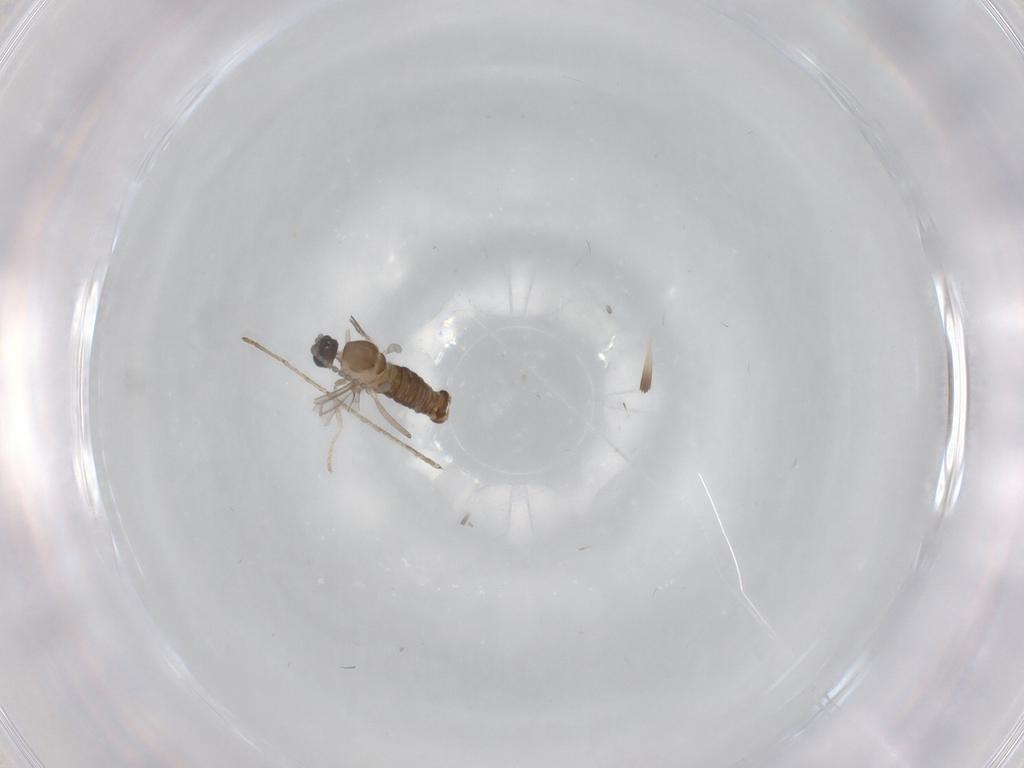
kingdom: Animalia
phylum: Arthropoda
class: Insecta
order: Diptera
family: Cecidomyiidae
